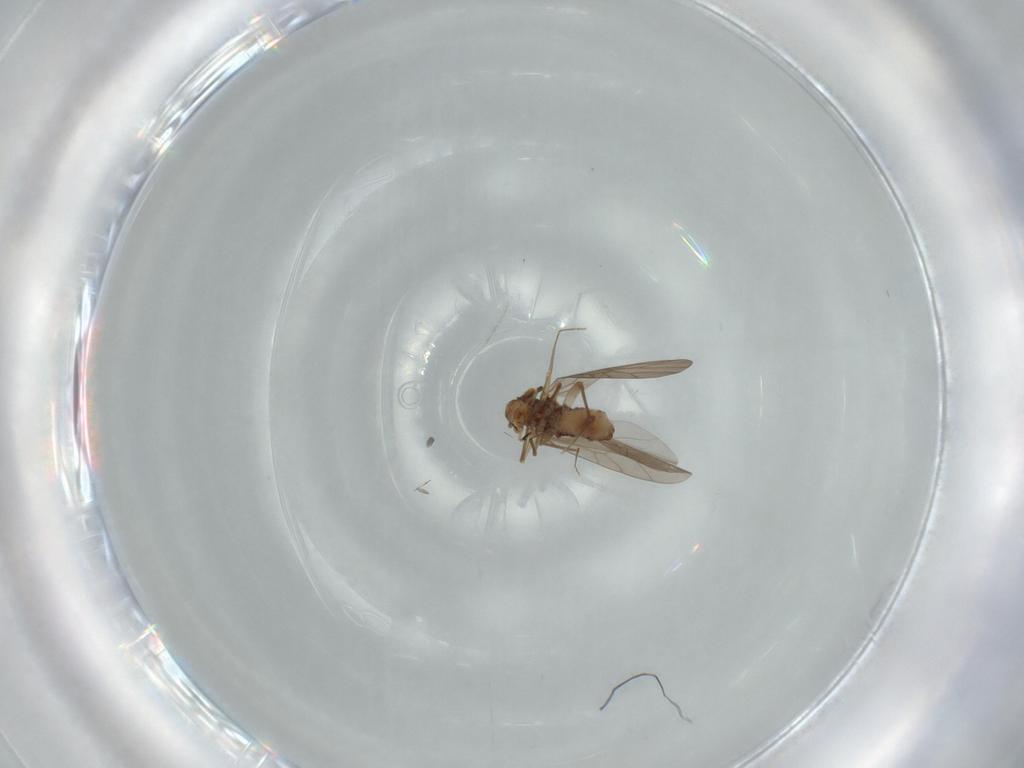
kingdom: Animalia
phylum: Arthropoda
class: Insecta
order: Psocodea
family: Lepidopsocidae
